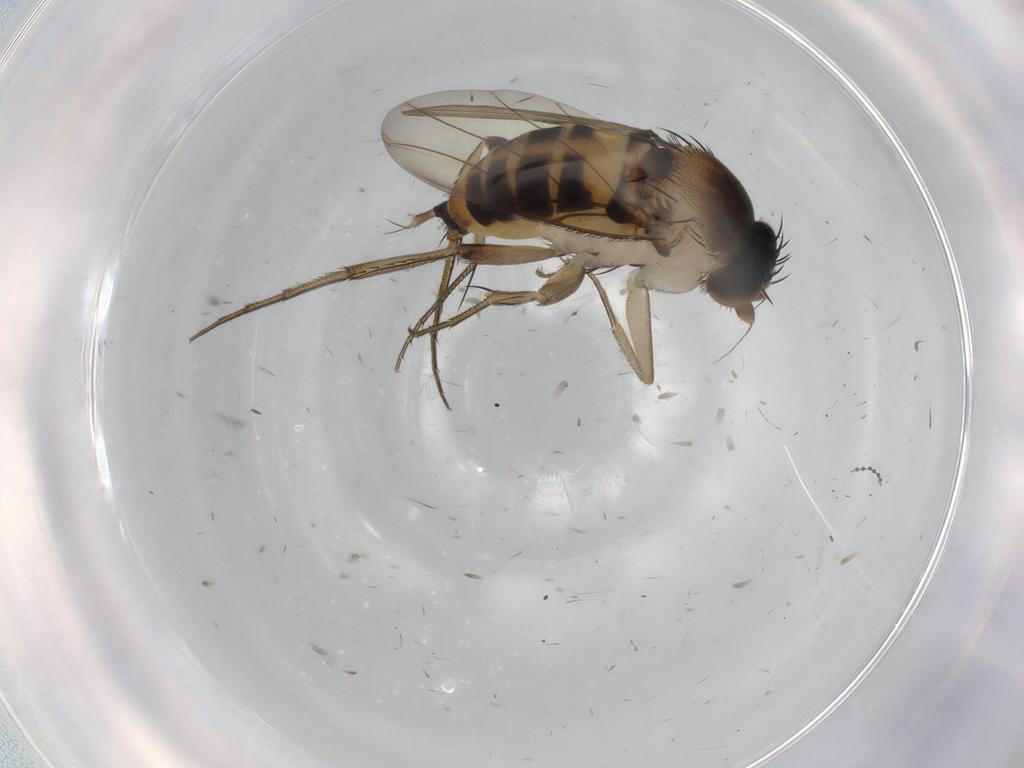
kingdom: Animalia
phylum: Arthropoda
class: Insecta
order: Diptera
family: Phoridae
